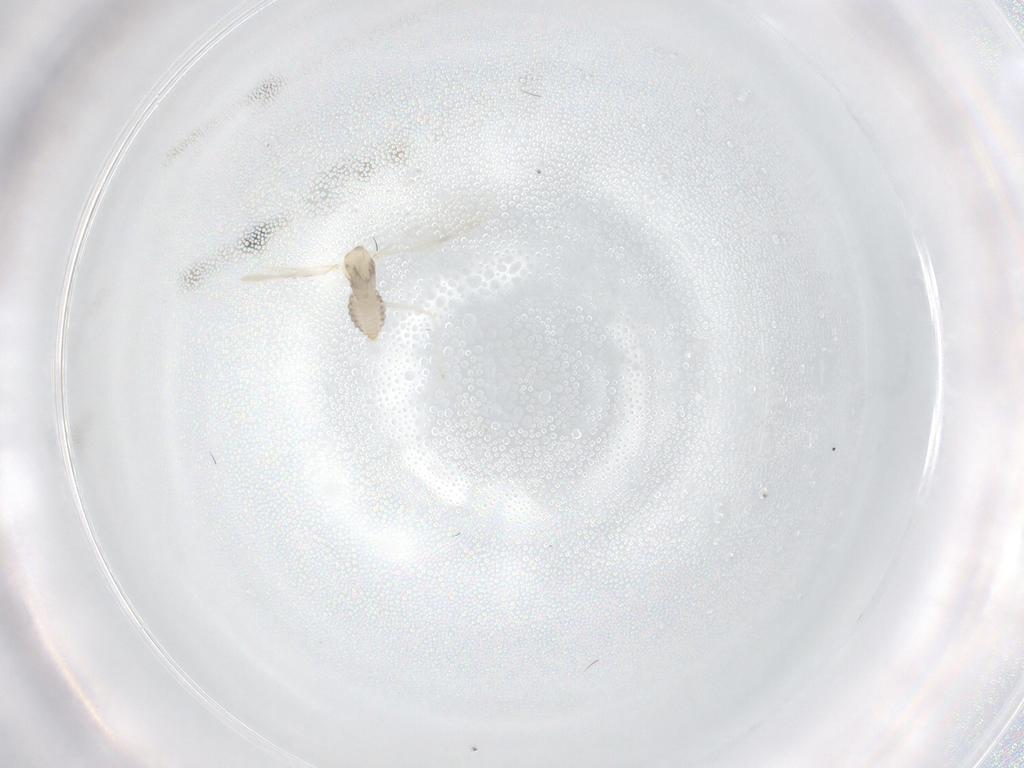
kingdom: Animalia
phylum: Arthropoda
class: Insecta
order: Diptera
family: Cecidomyiidae
